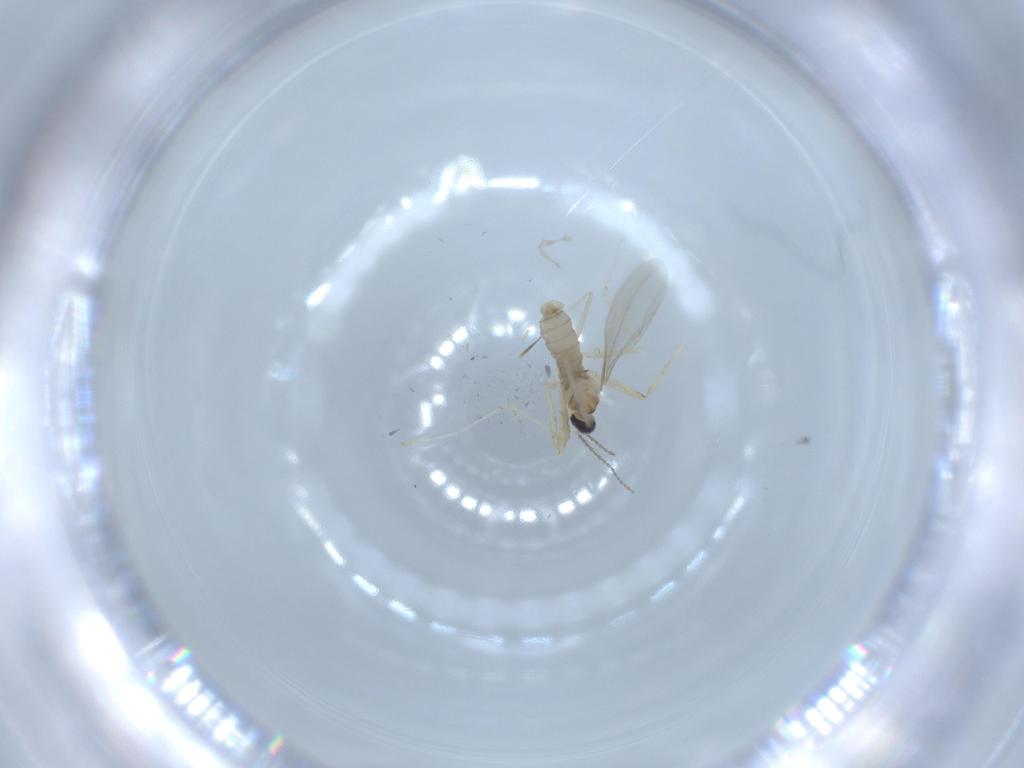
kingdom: Animalia
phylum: Arthropoda
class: Insecta
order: Diptera
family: Cecidomyiidae
